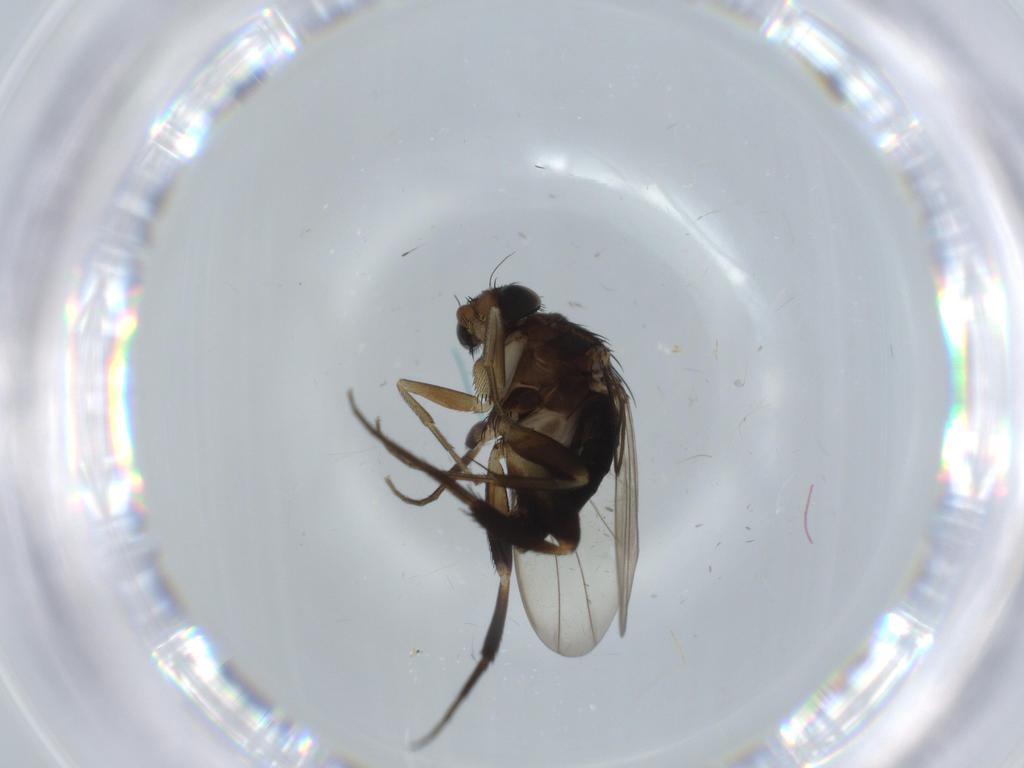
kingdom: Animalia
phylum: Arthropoda
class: Insecta
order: Diptera
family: Phoridae
